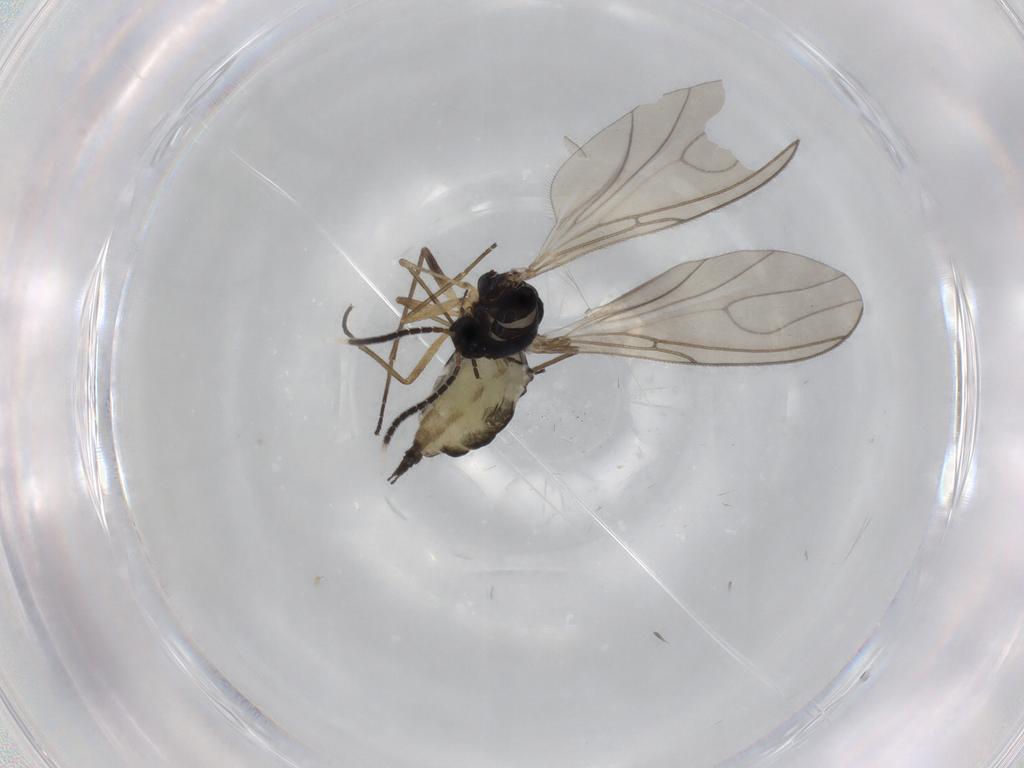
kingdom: Animalia
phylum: Arthropoda
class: Insecta
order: Diptera
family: Sciaridae
